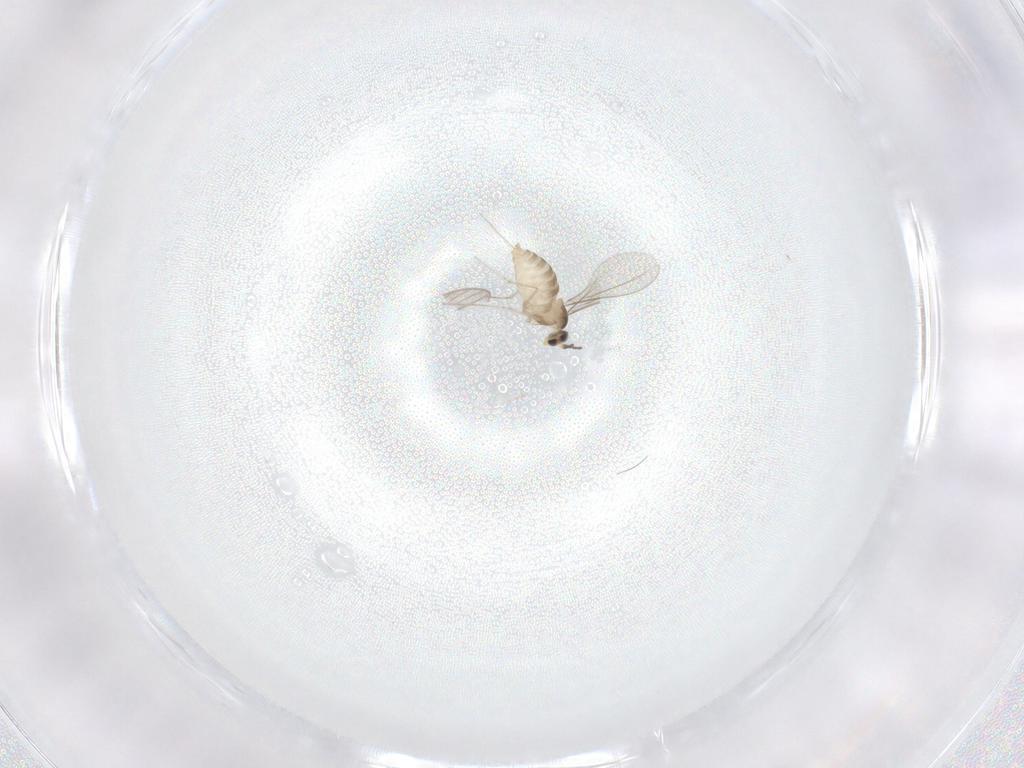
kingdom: Animalia
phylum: Arthropoda
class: Insecta
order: Diptera
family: Psychodidae
